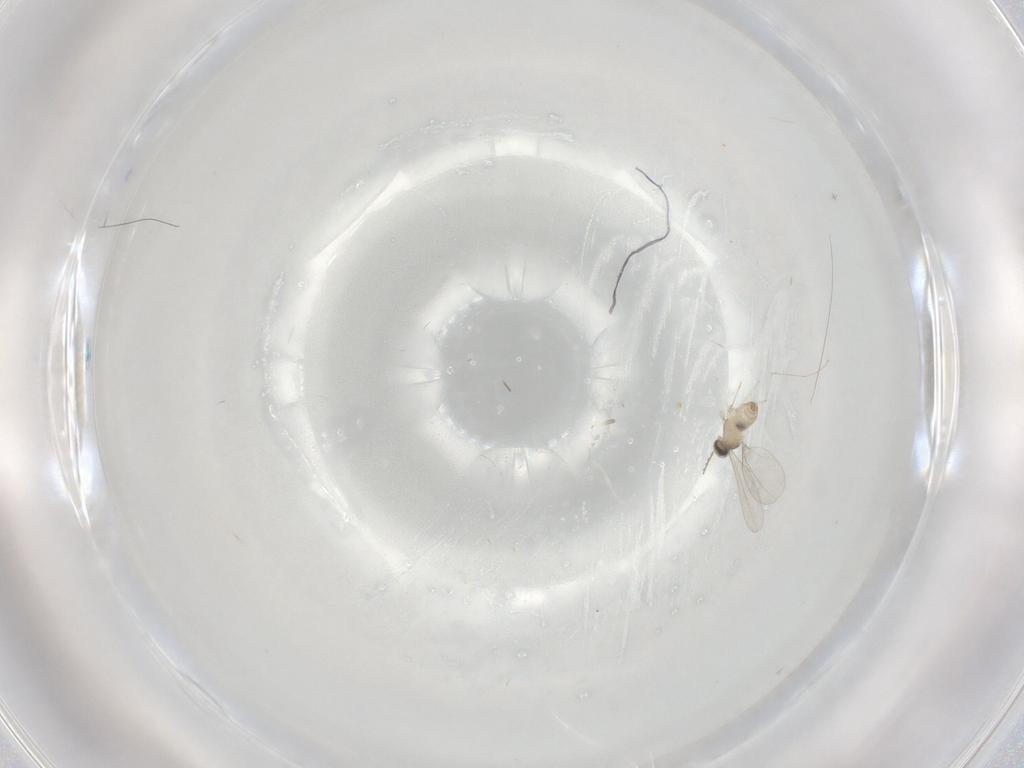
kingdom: Animalia
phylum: Arthropoda
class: Insecta
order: Diptera
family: Cecidomyiidae
